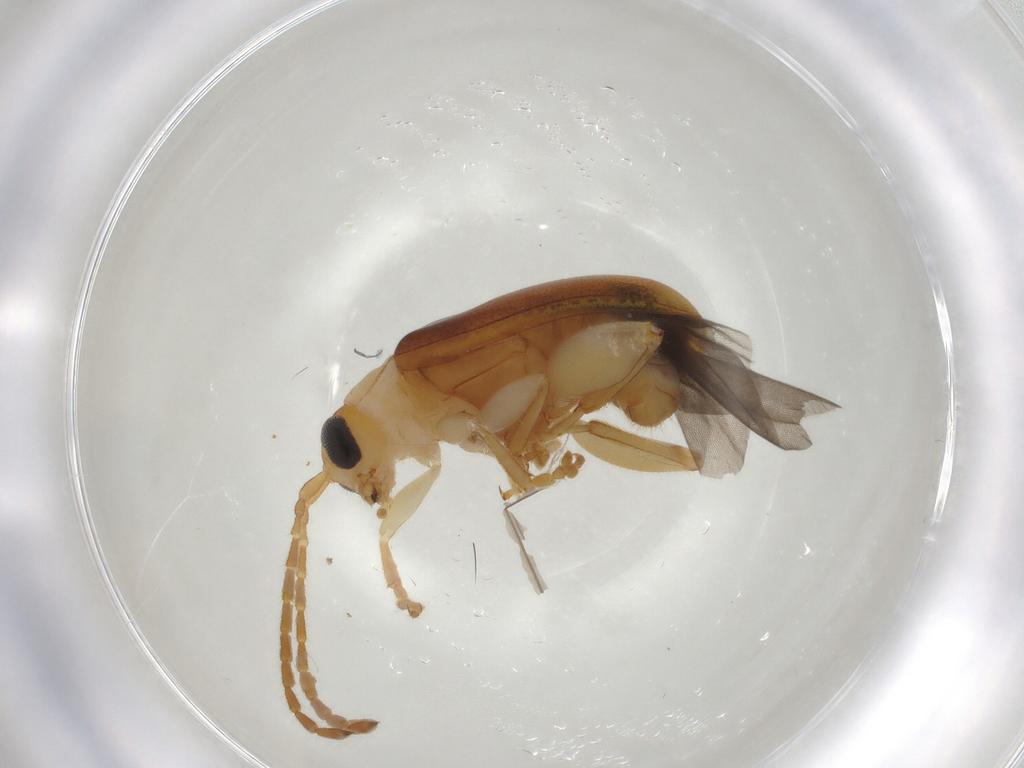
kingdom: Animalia
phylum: Arthropoda
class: Insecta
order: Coleoptera
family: Chrysomelidae
